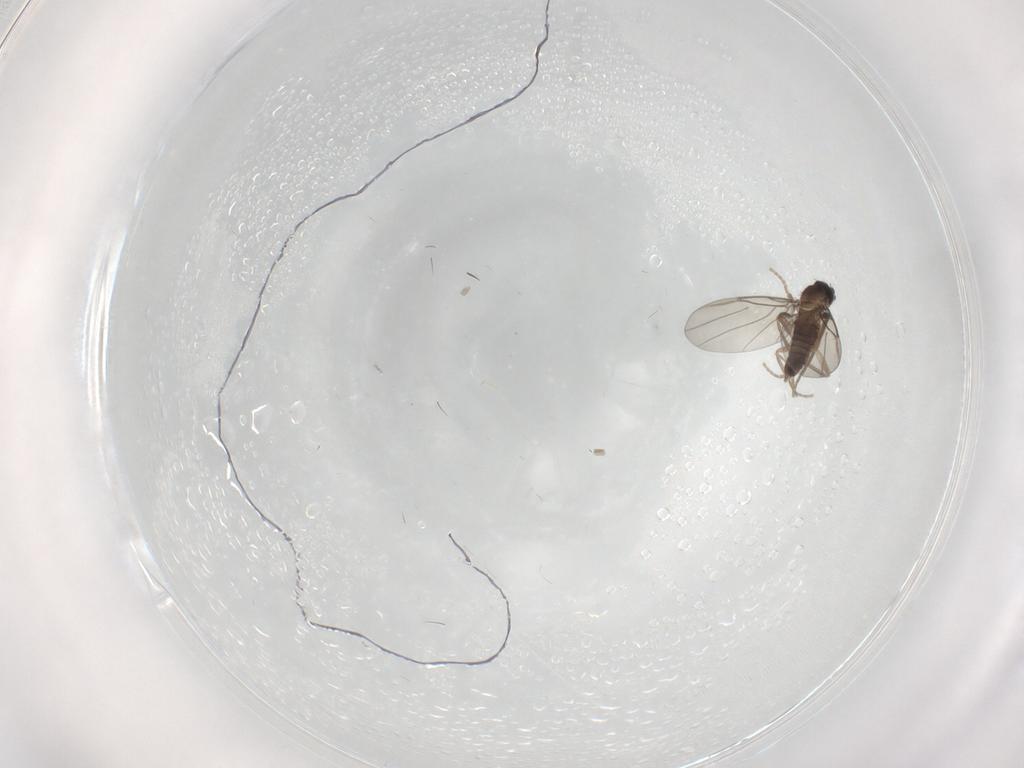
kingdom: Animalia
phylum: Arthropoda
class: Insecta
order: Diptera
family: Phoridae
